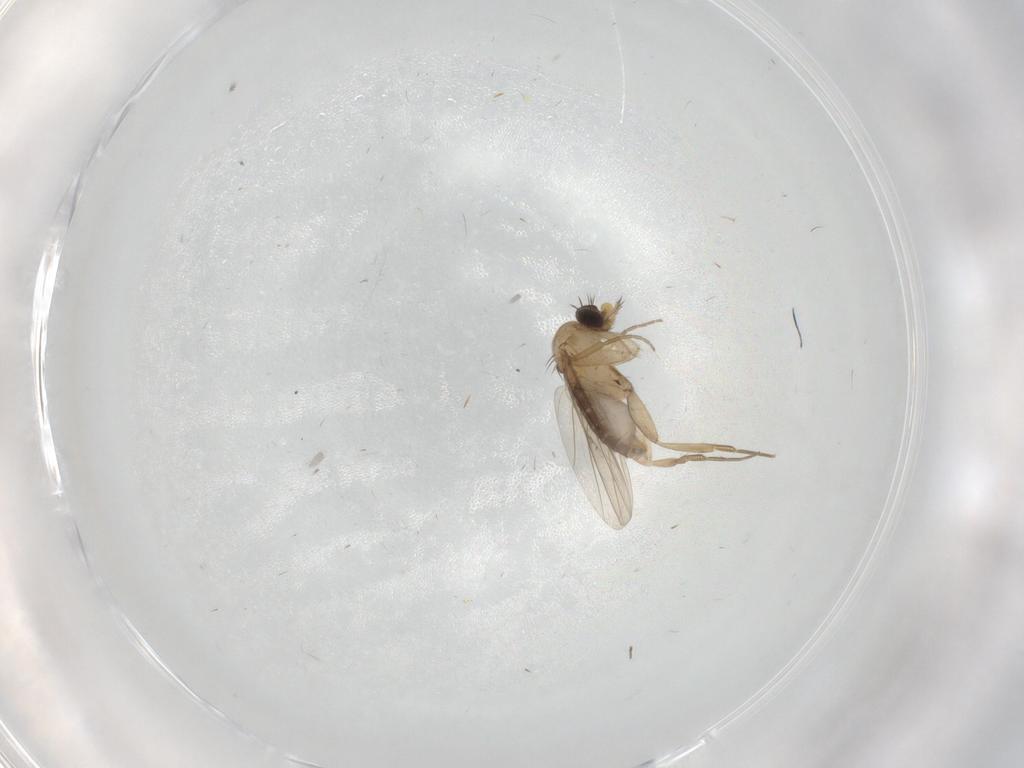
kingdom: Animalia
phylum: Arthropoda
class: Insecta
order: Diptera
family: Phoridae
